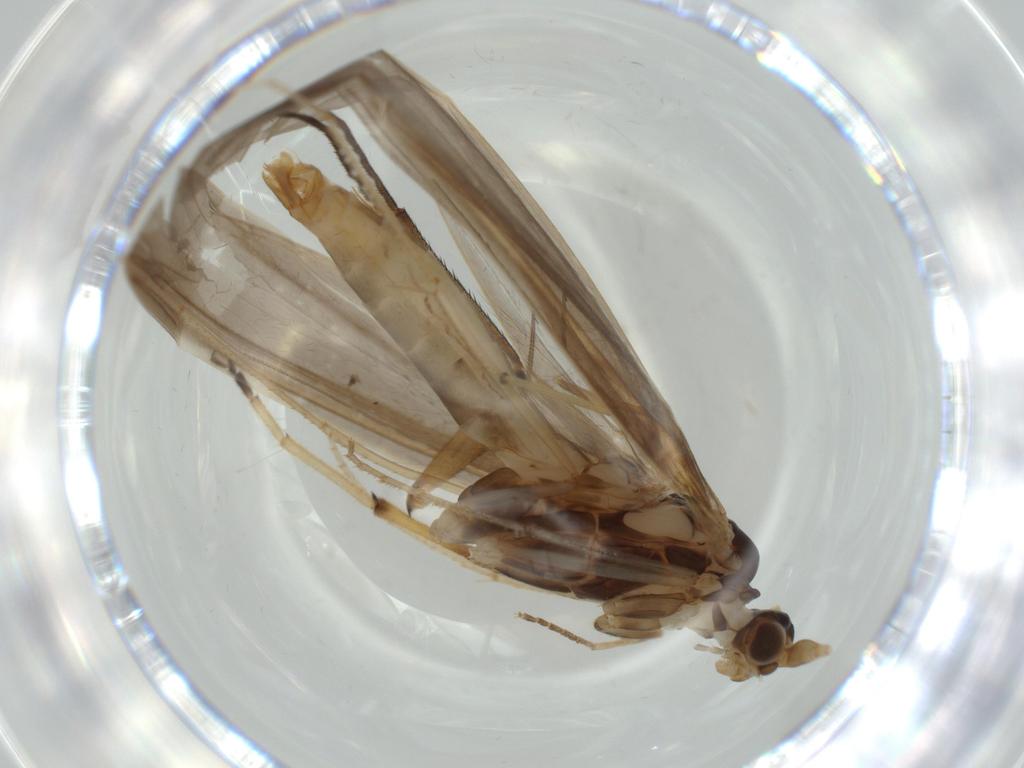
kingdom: Animalia
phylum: Arthropoda
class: Insecta
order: Trichoptera
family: Leptoceridae
